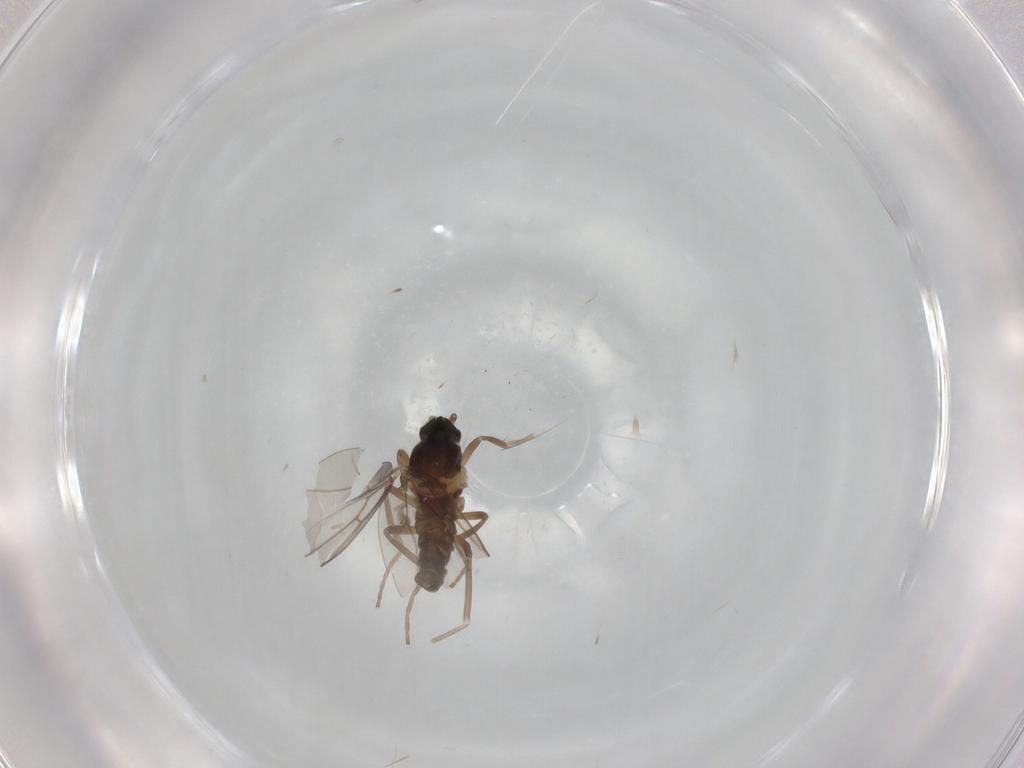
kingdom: Animalia
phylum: Arthropoda
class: Insecta
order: Diptera
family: Cecidomyiidae
